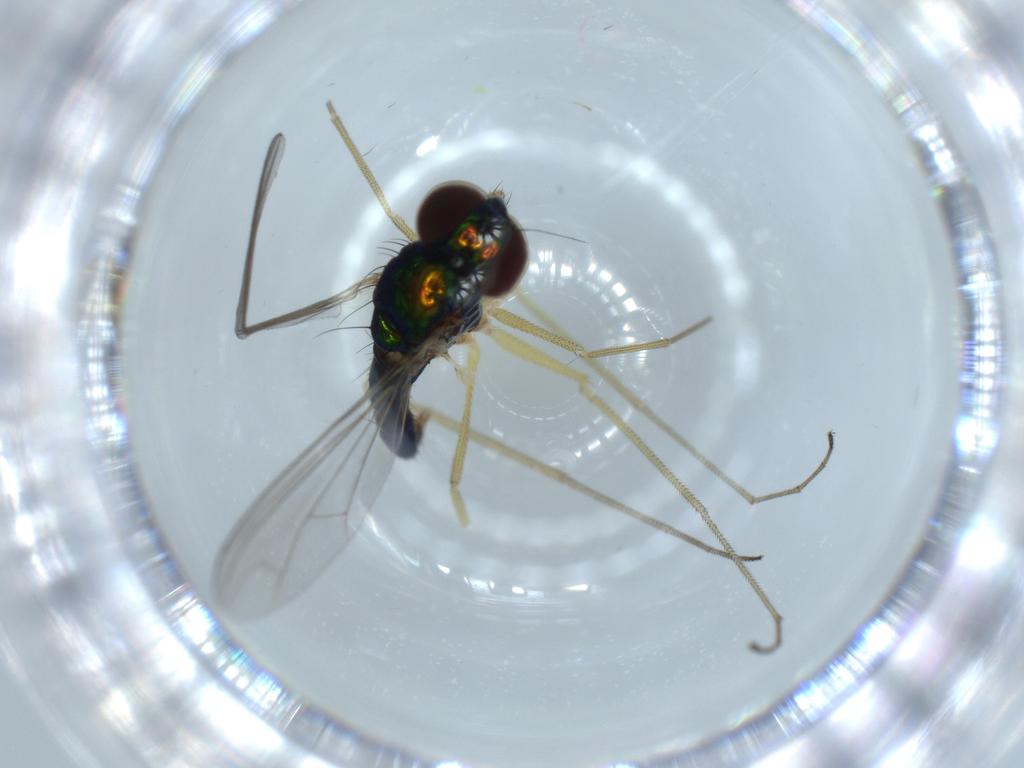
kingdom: Animalia
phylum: Arthropoda
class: Insecta
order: Diptera
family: Dolichopodidae
